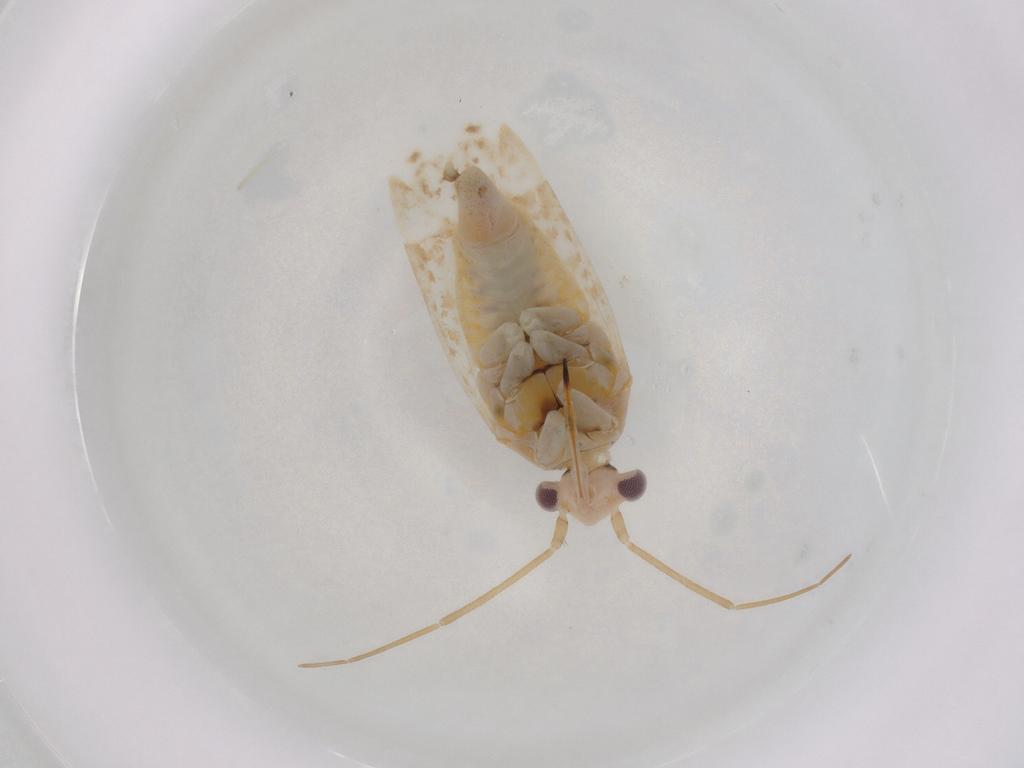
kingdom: Animalia
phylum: Arthropoda
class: Insecta
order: Hemiptera
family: Miridae
